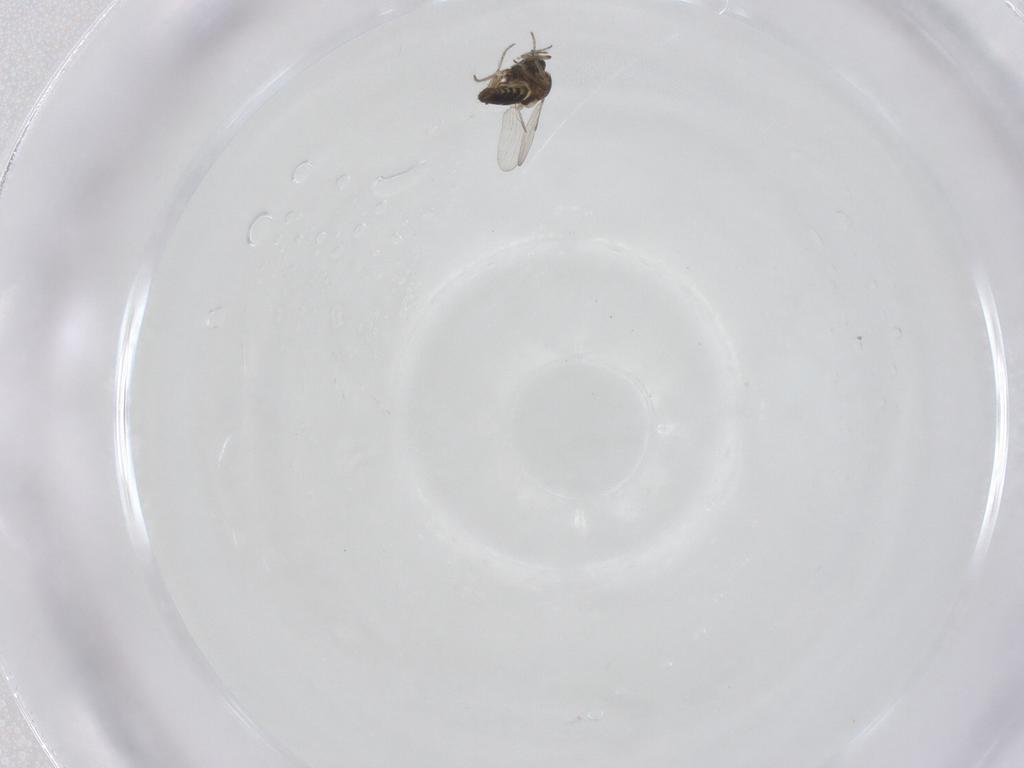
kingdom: Animalia
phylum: Arthropoda
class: Insecta
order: Diptera
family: Ceratopogonidae
